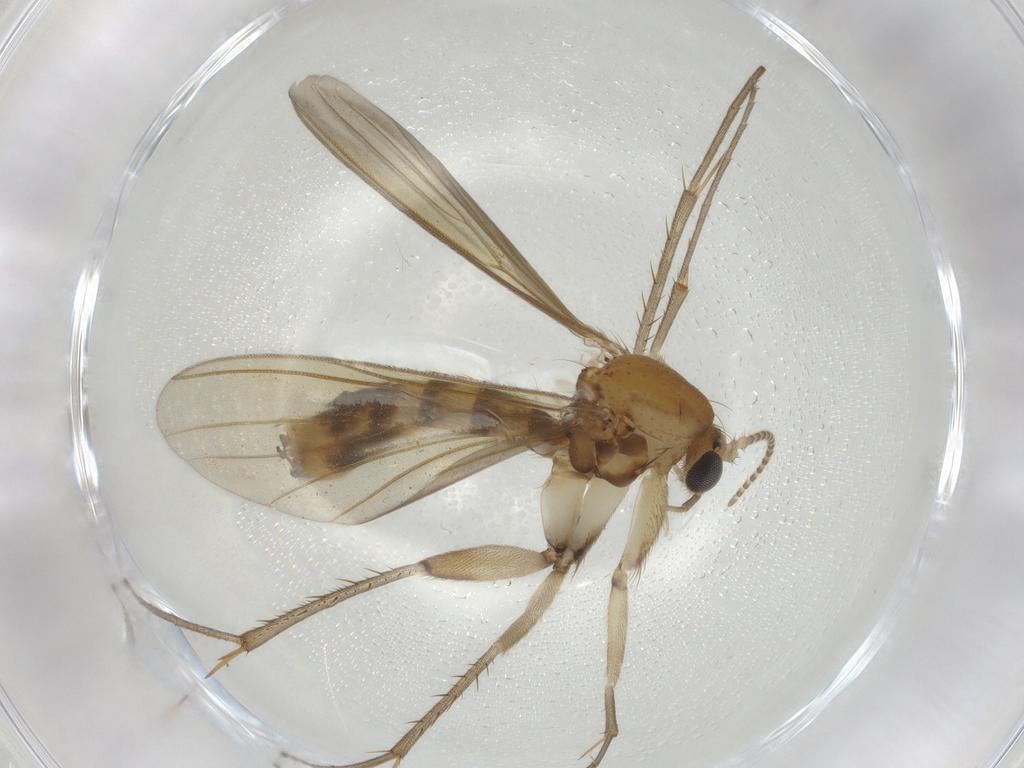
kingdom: Animalia
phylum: Arthropoda
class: Insecta
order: Diptera
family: Mycetophilidae
